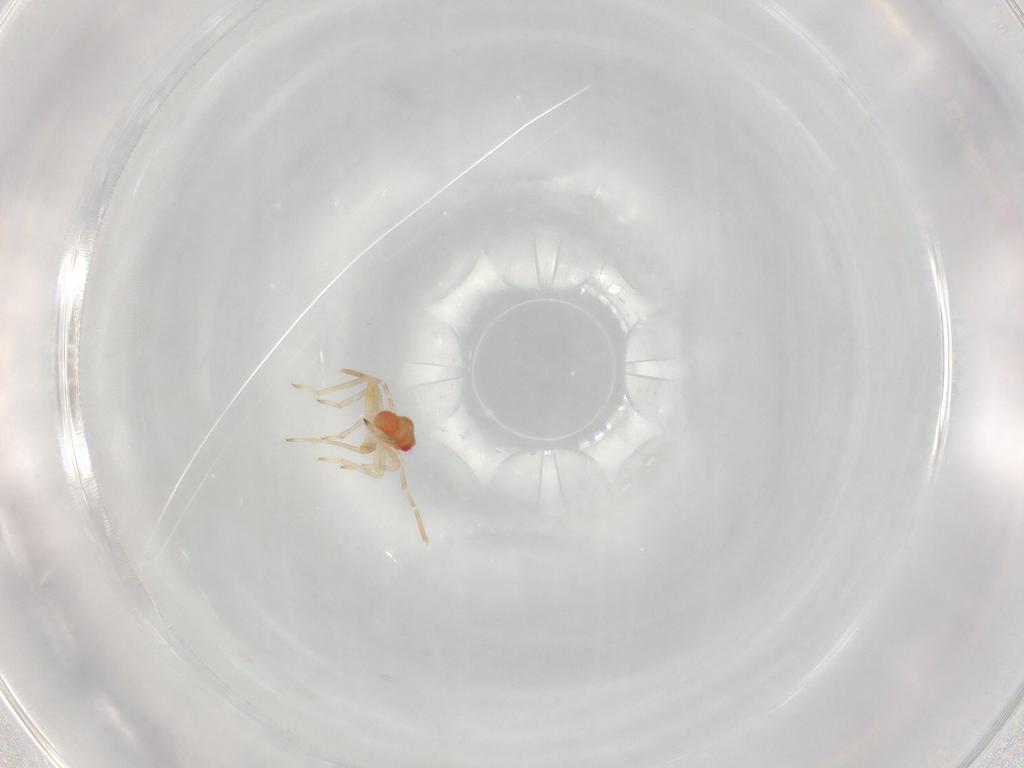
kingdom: Animalia
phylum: Arthropoda
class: Insecta
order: Hemiptera
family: Miridae
